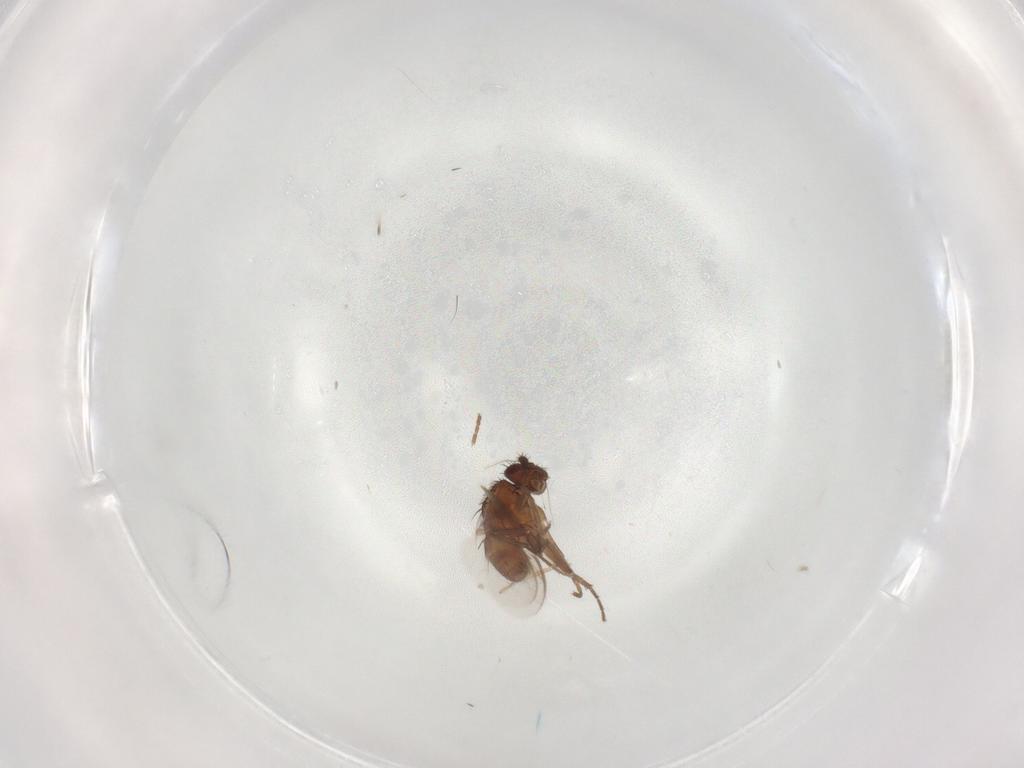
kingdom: Animalia
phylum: Arthropoda
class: Insecta
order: Diptera
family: Sphaeroceridae
